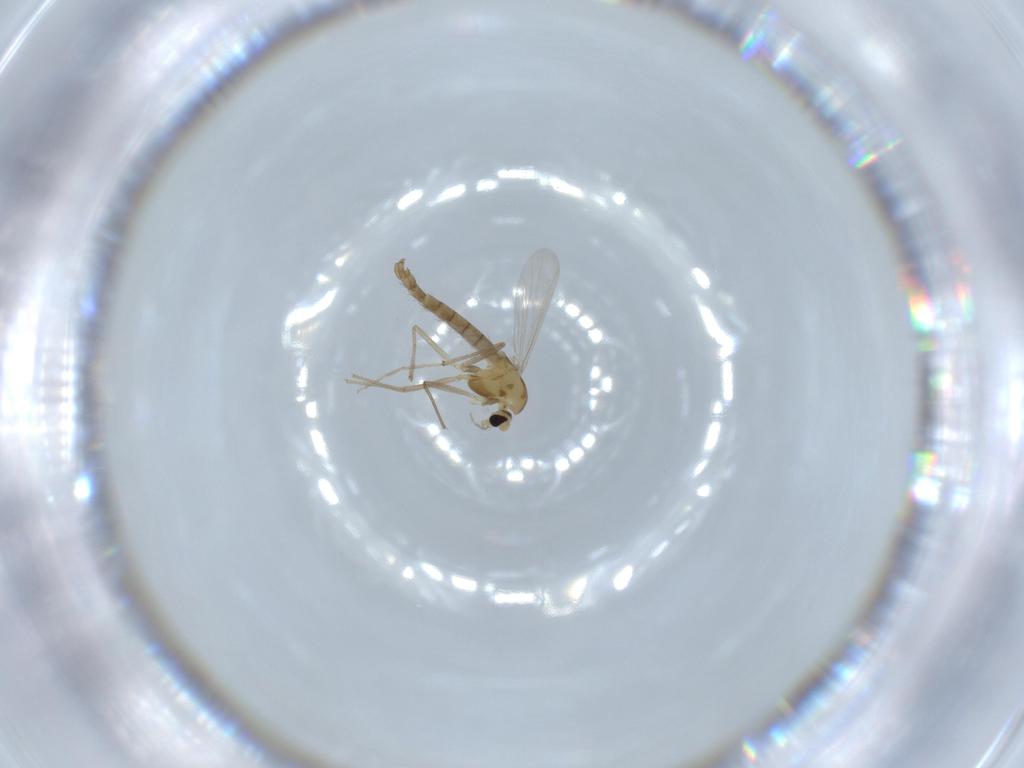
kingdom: Animalia
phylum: Arthropoda
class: Insecta
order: Diptera
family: Chironomidae
